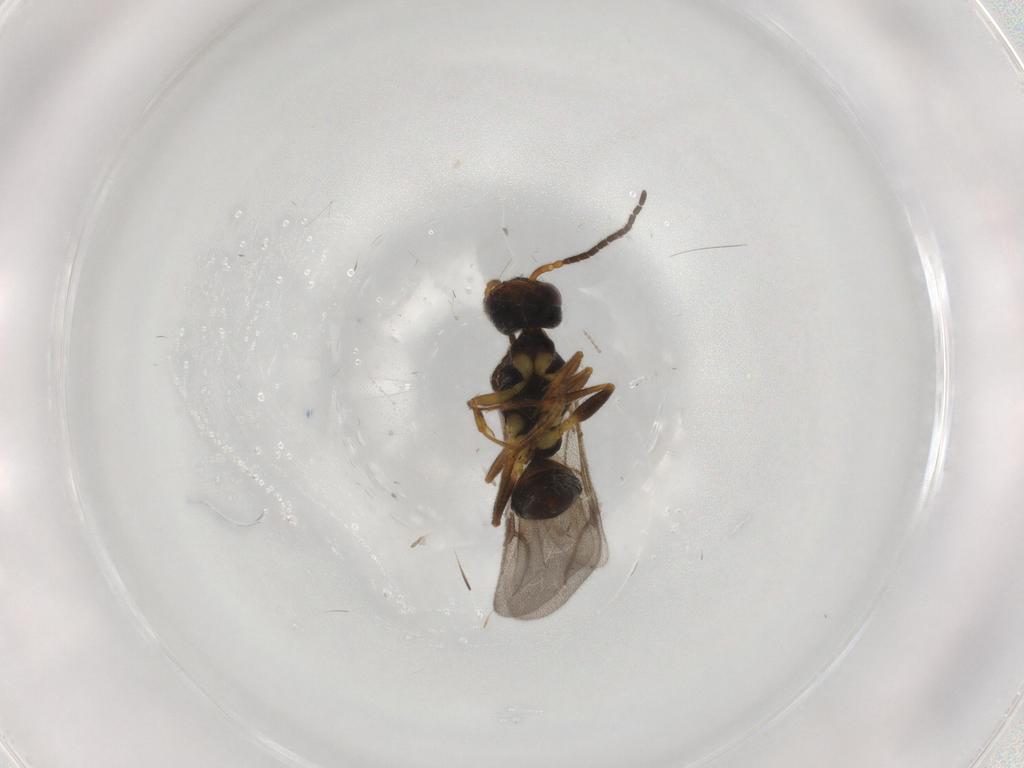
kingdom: Animalia
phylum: Arthropoda
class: Insecta
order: Hymenoptera
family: Bethylidae
